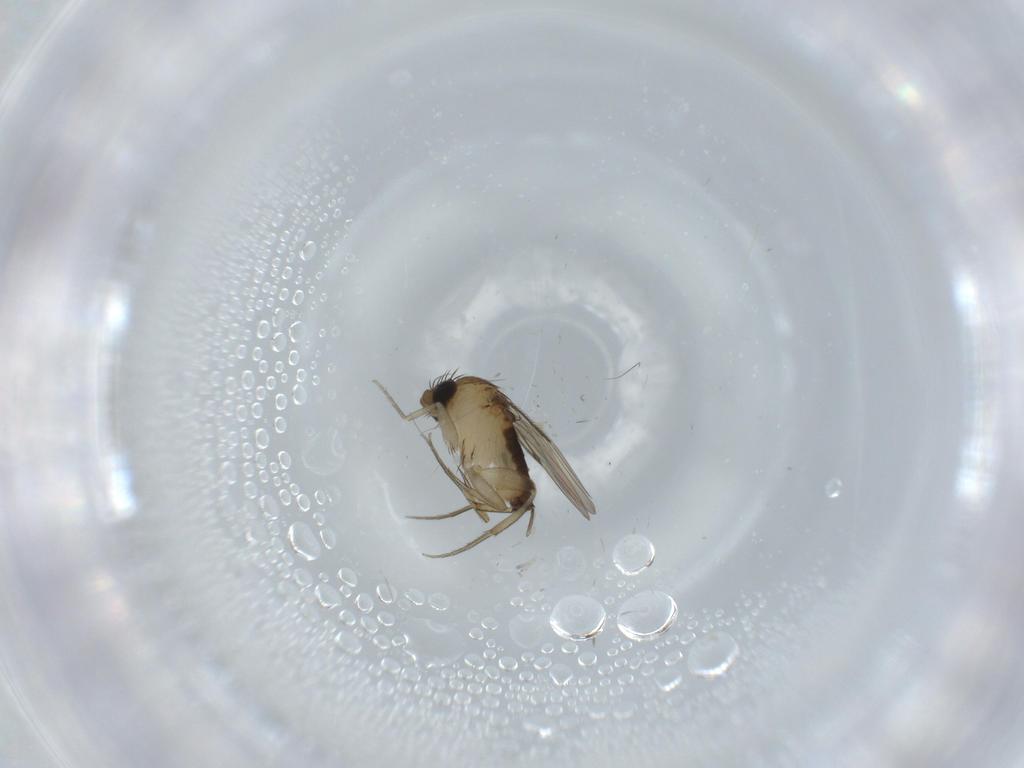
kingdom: Animalia
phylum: Arthropoda
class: Insecta
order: Diptera
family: Phoridae
